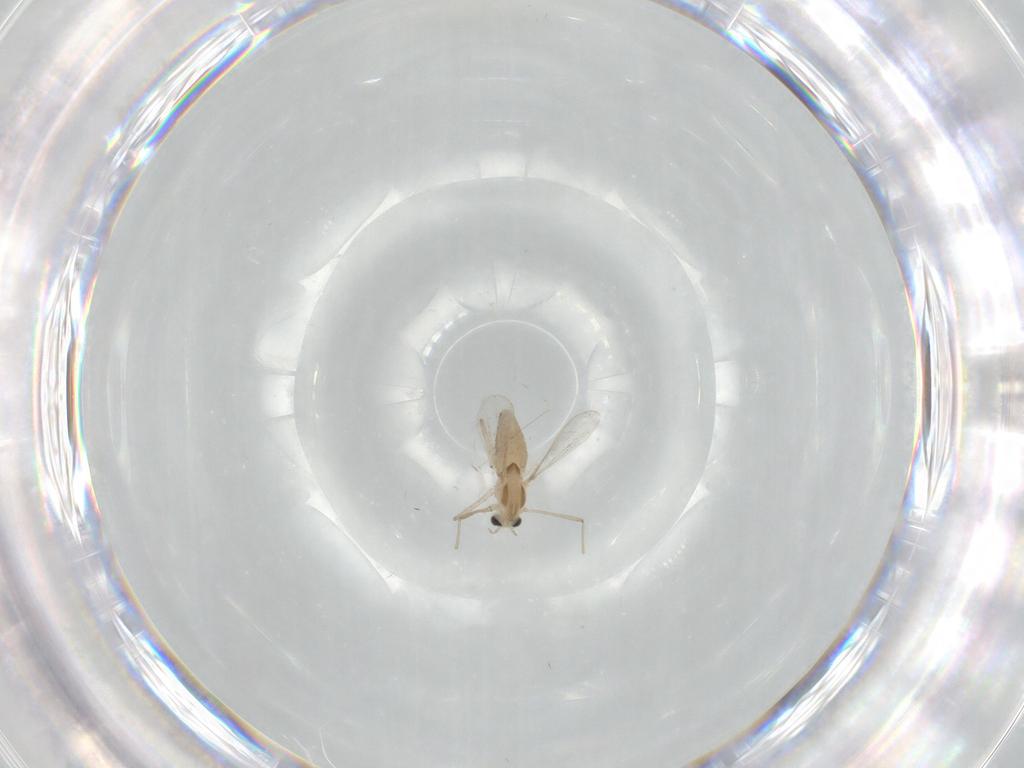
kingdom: Animalia
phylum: Arthropoda
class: Insecta
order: Diptera
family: Chironomidae
